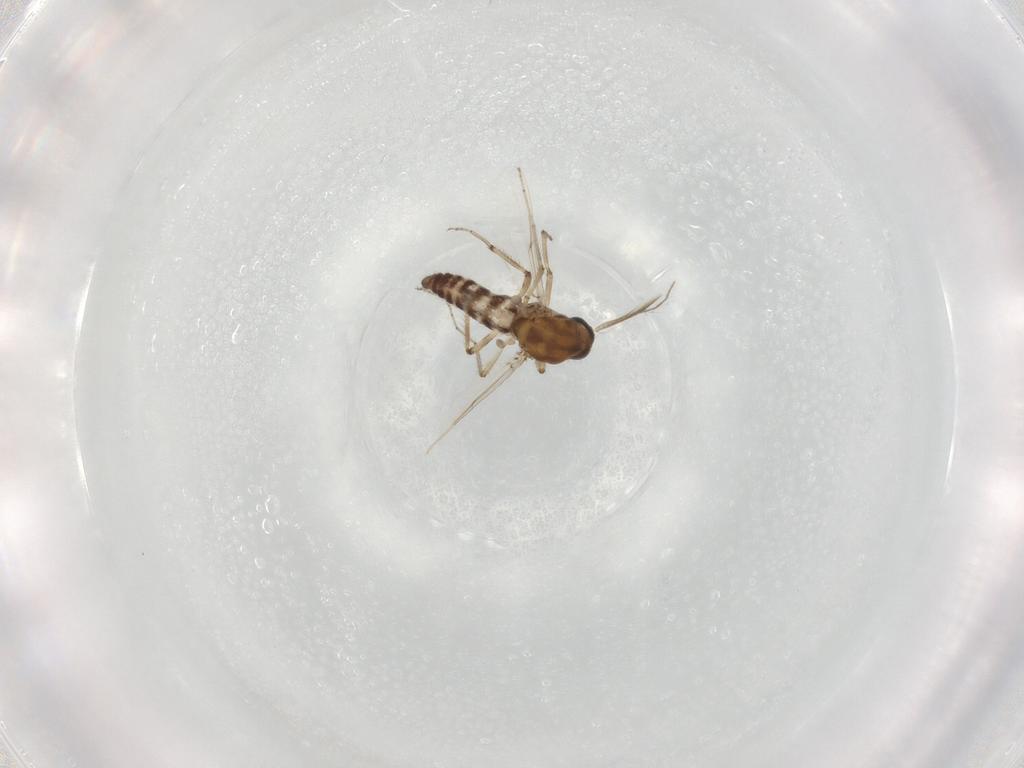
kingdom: Animalia
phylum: Arthropoda
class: Insecta
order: Diptera
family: Ceratopogonidae
